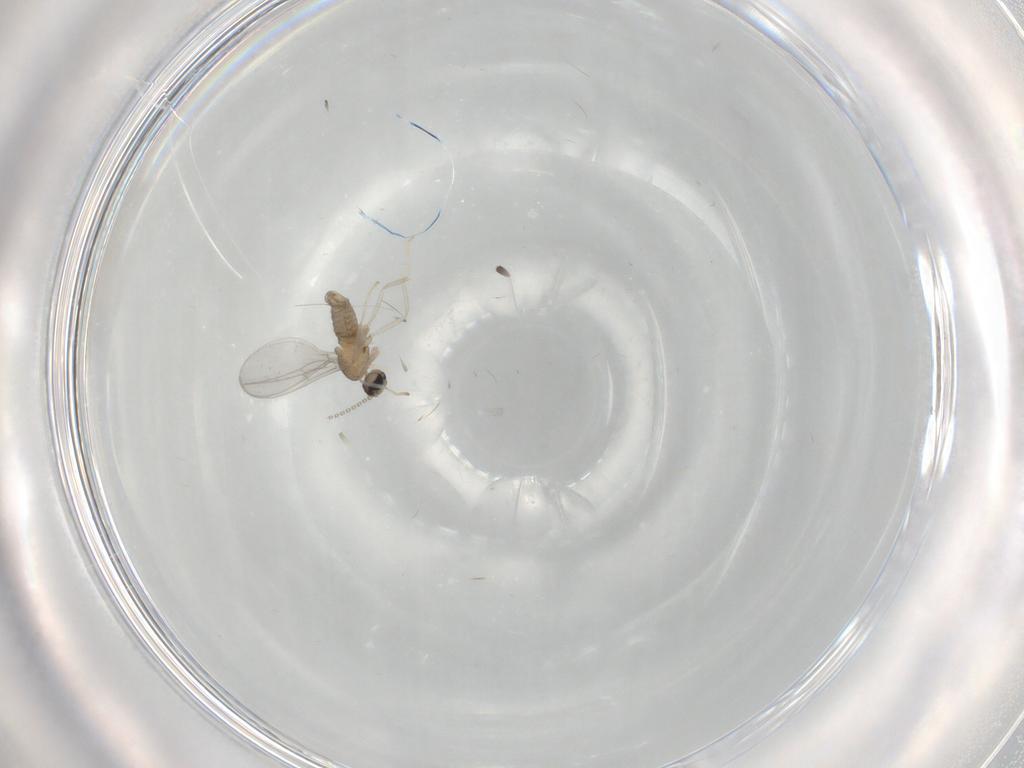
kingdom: Animalia
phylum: Arthropoda
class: Insecta
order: Diptera
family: Cecidomyiidae
